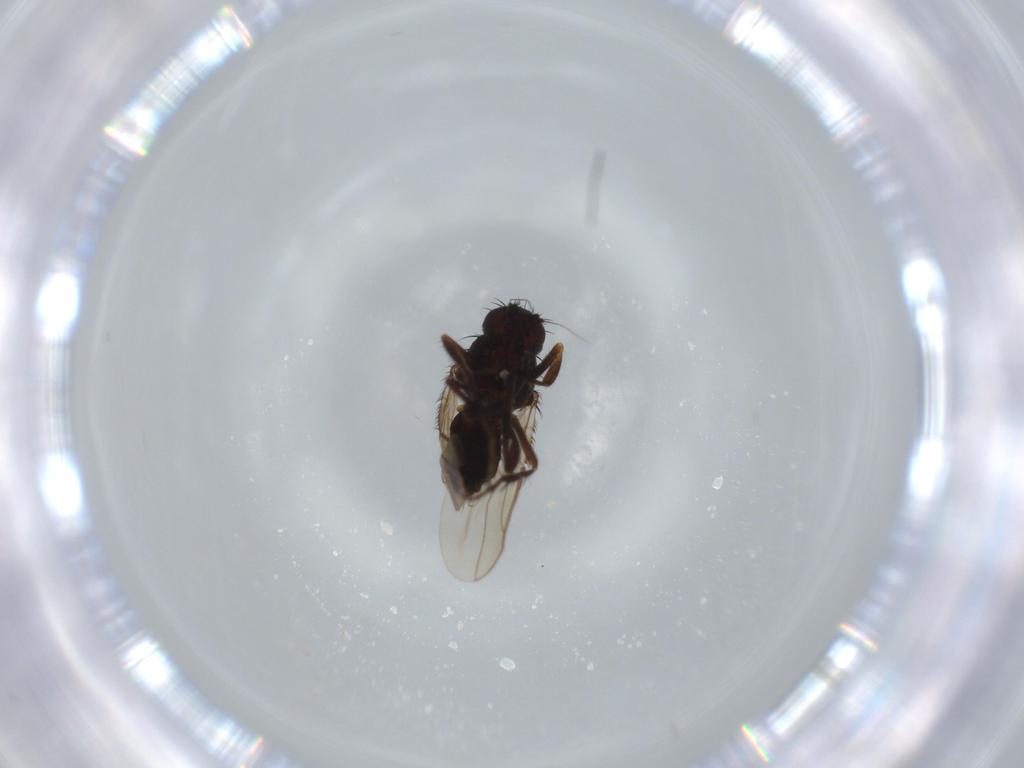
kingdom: Animalia
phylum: Arthropoda
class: Insecta
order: Diptera
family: Sphaeroceridae
